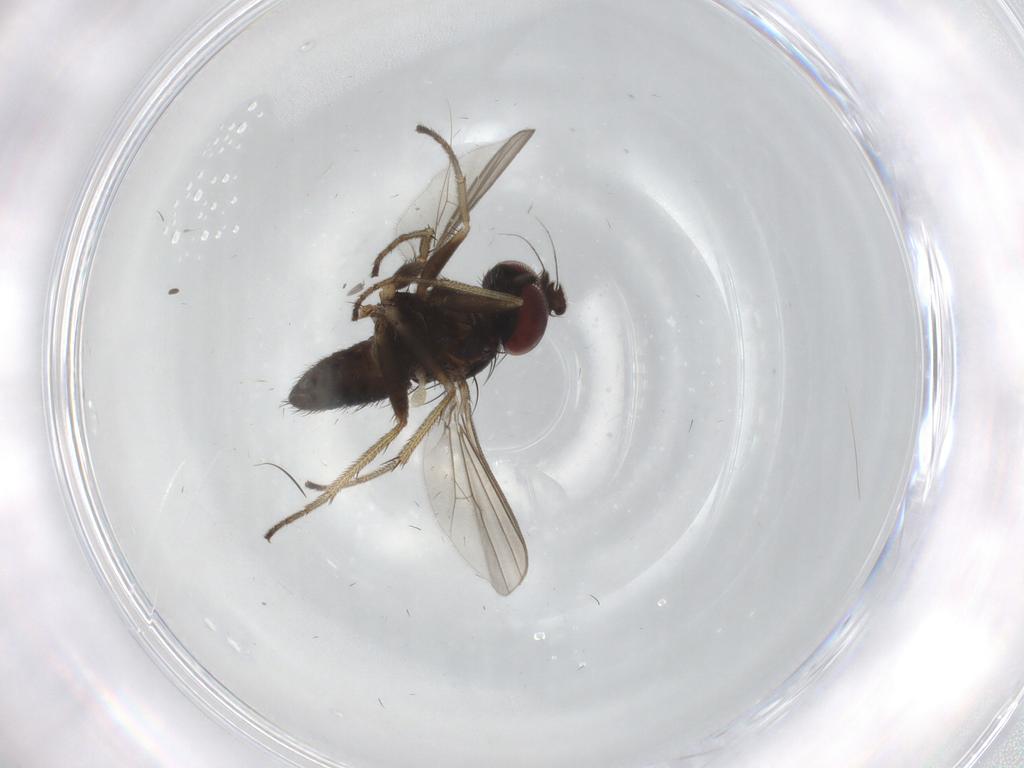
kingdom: Animalia
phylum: Arthropoda
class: Insecta
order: Diptera
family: Dolichopodidae
